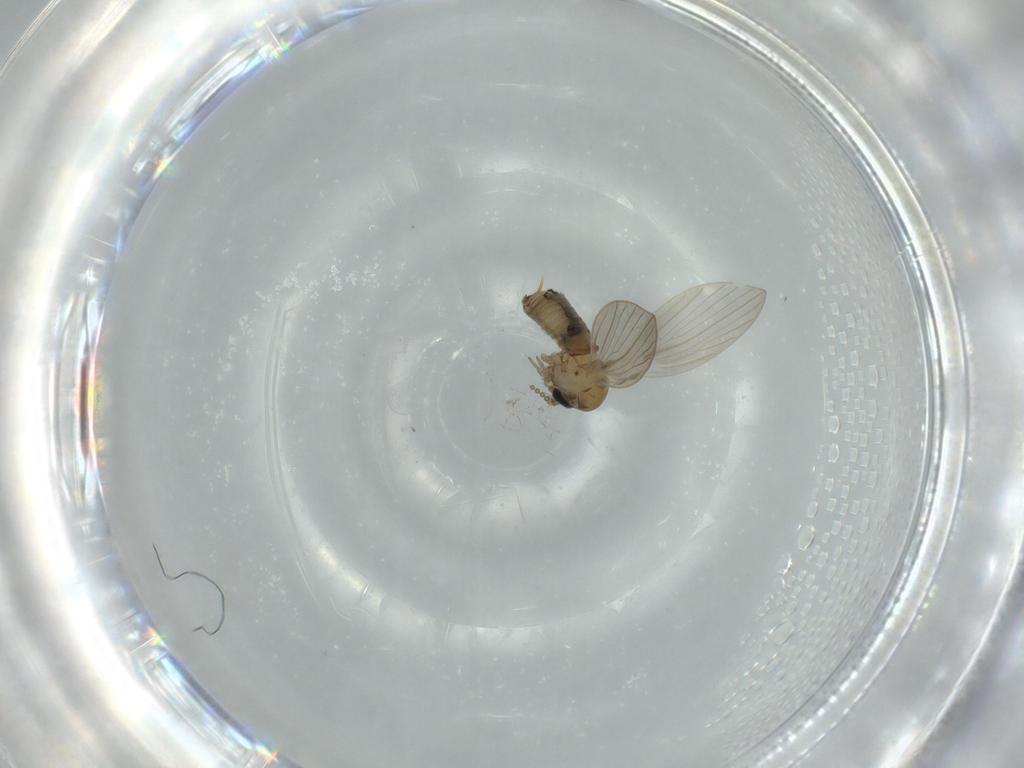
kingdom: Animalia
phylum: Arthropoda
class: Insecta
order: Diptera
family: Psychodidae
